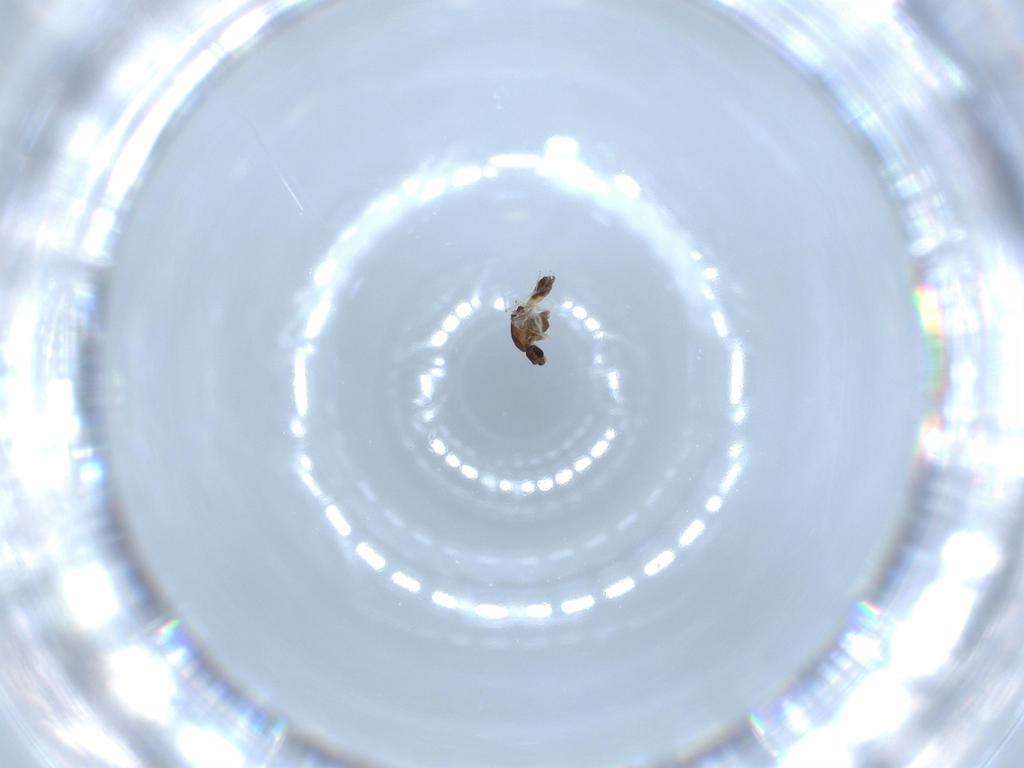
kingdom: Animalia
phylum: Arthropoda
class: Insecta
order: Diptera
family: Chironomidae
